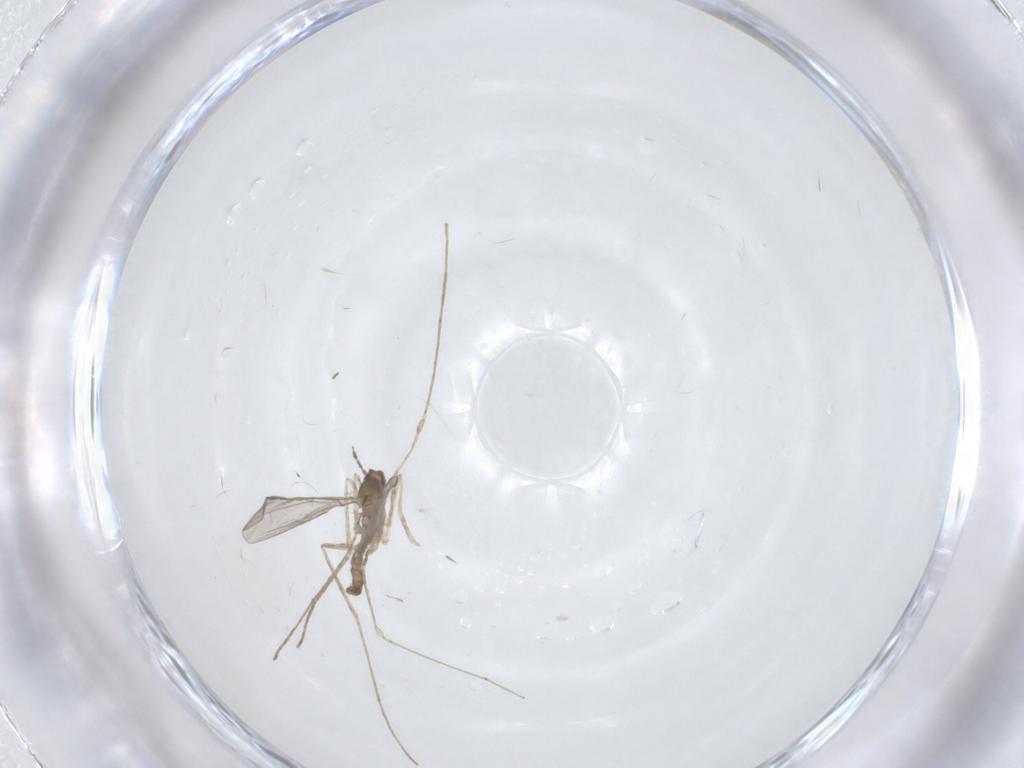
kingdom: Animalia
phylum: Arthropoda
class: Insecta
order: Diptera
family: Cecidomyiidae
